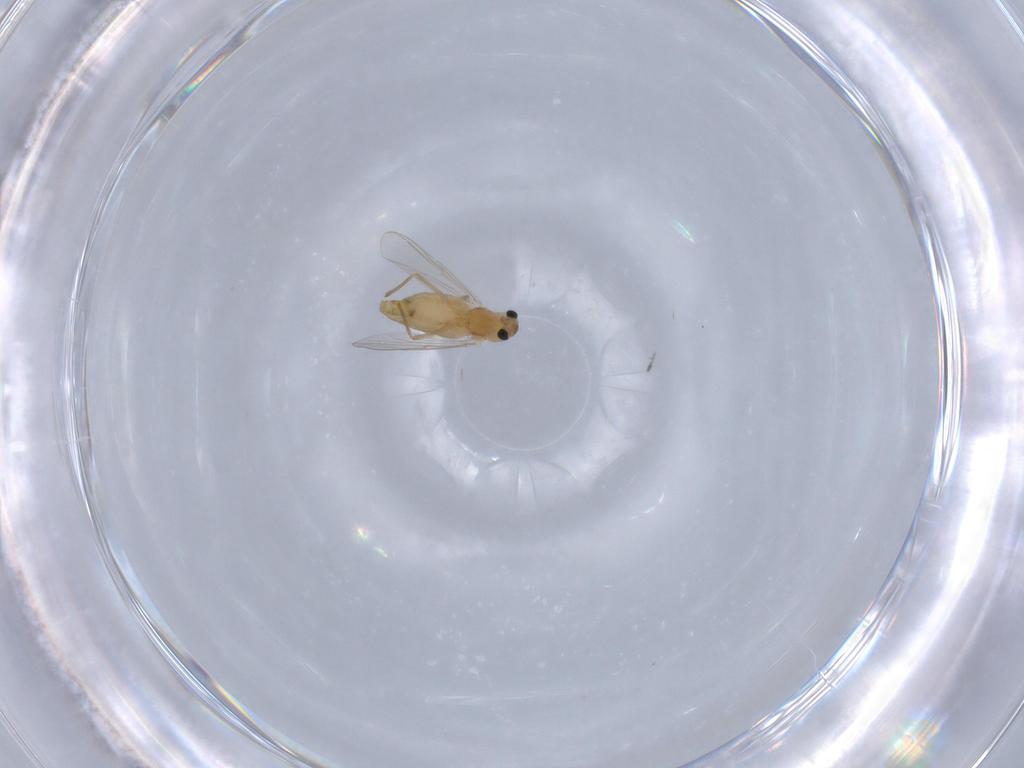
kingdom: Animalia
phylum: Arthropoda
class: Insecta
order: Diptera
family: Chironomidae
